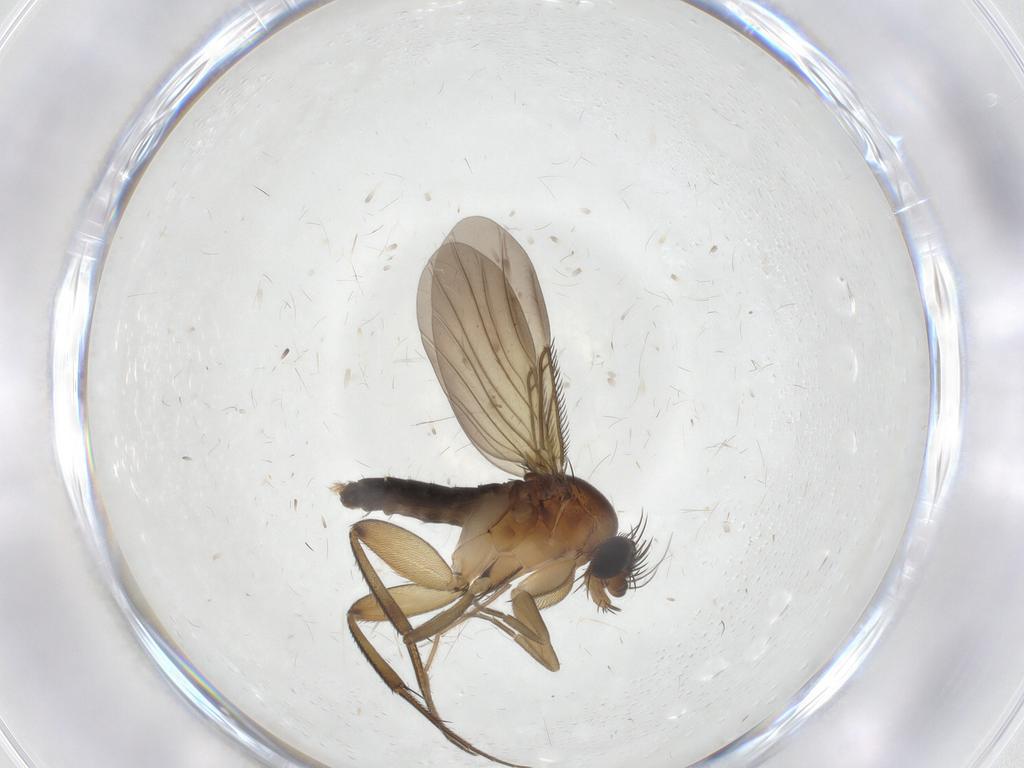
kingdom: Animalia
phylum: Arthropoda
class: Insecta
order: Diptera
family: Phoridae
